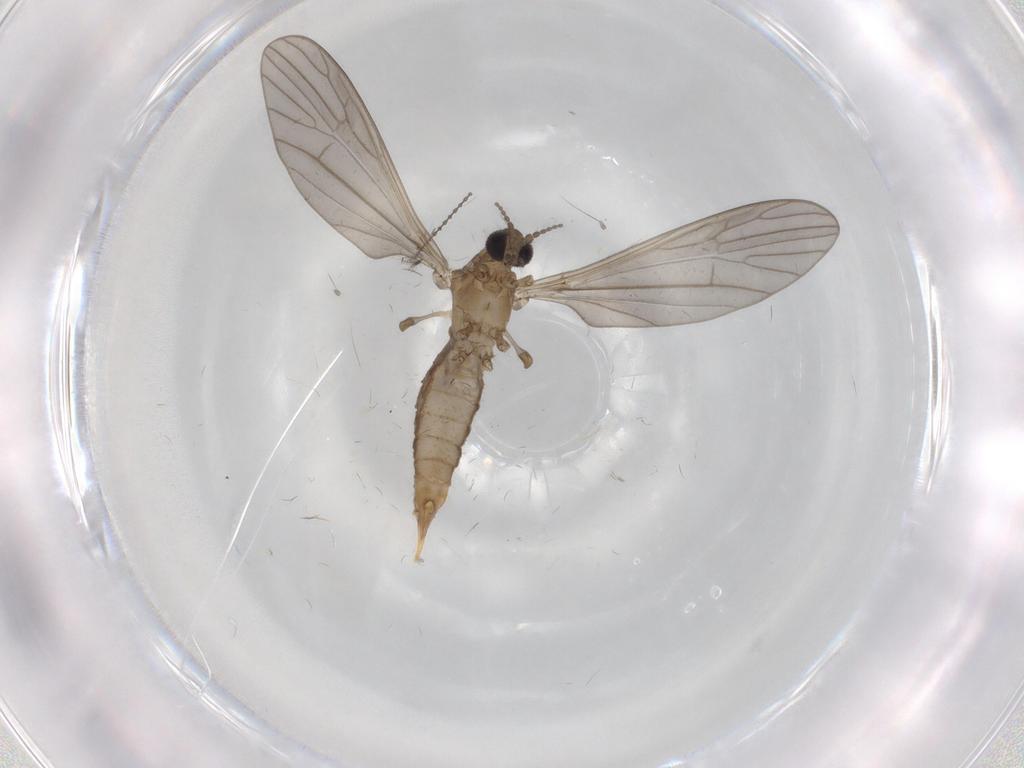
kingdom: Animalia
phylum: Arthropoda
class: Insecta
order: Diptera
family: Limoniidae
